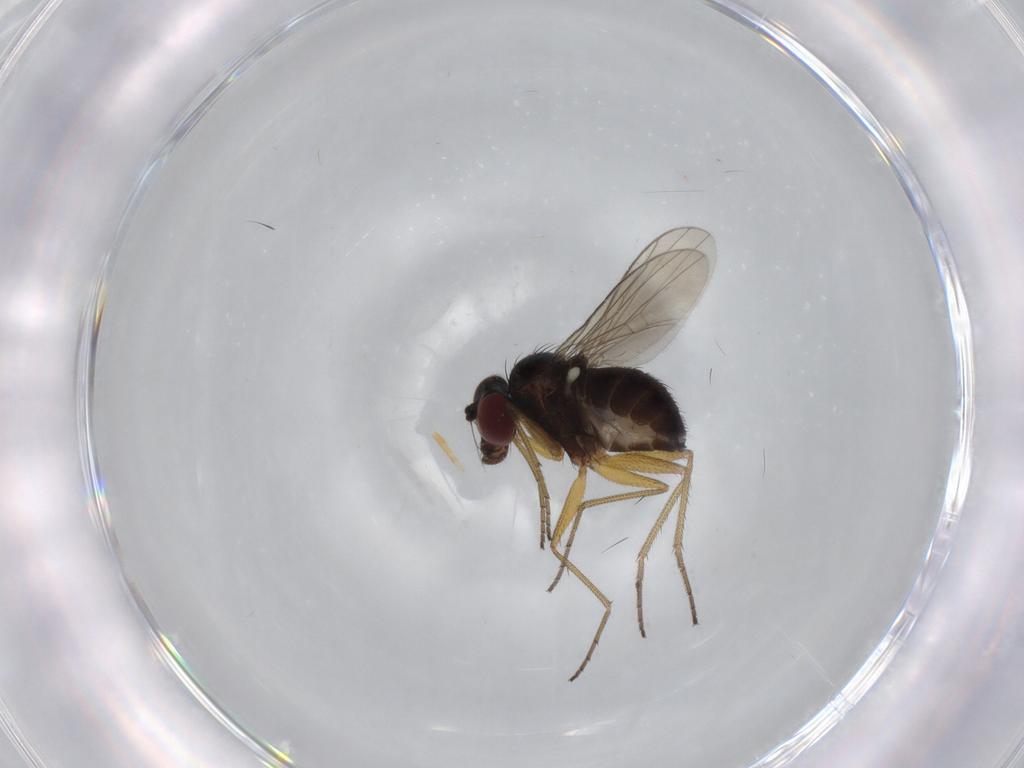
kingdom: Animalia
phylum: Arthropoda
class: Insecta
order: Diptera
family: Dolichopodidae
